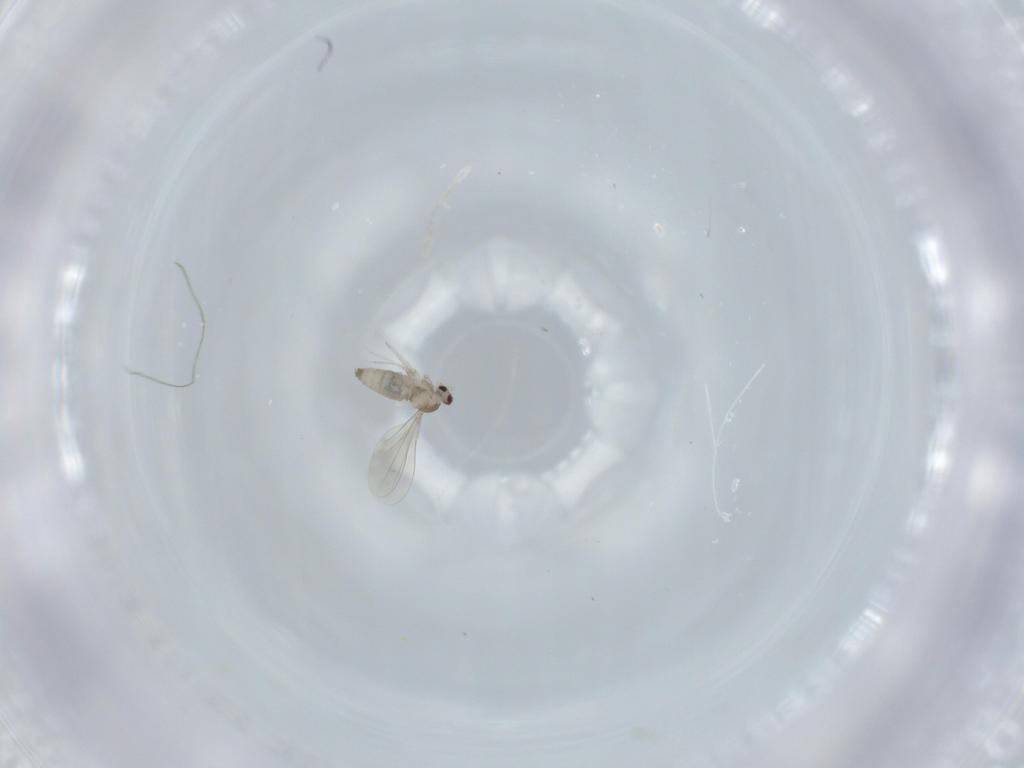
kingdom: Animalia
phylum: Arthropoda
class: Insecta
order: Diptera
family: Cecidomyiidae
